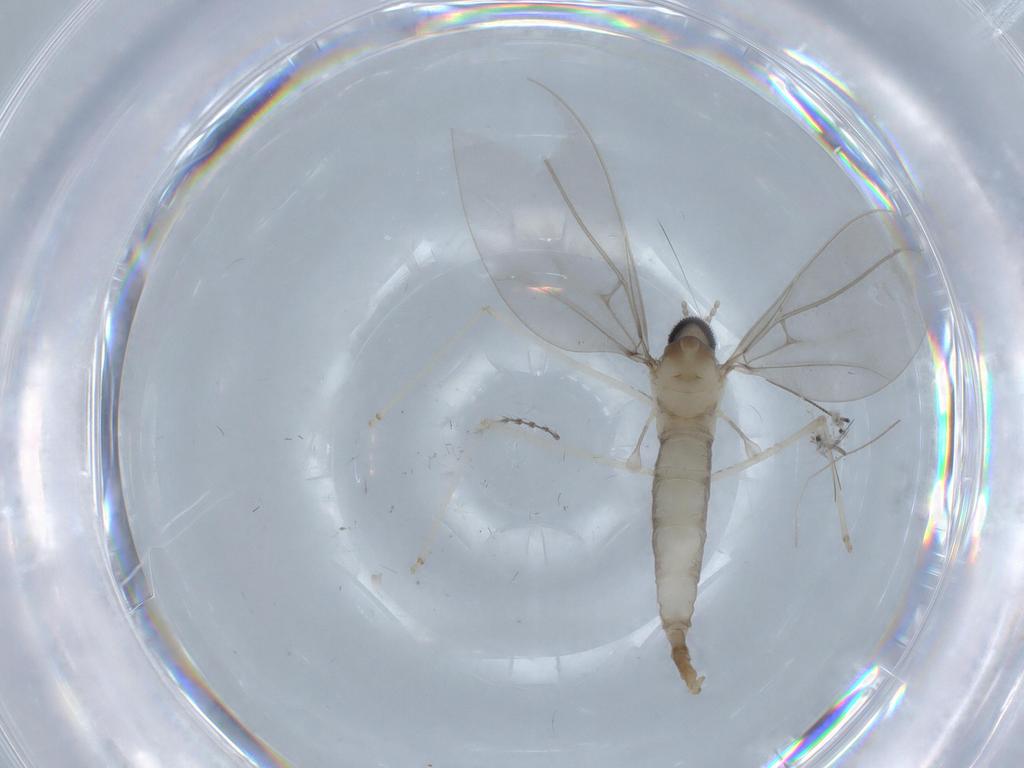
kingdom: Animalia
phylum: Arthropoda
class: Insecta
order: Diptera
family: Cecidomyiidae
